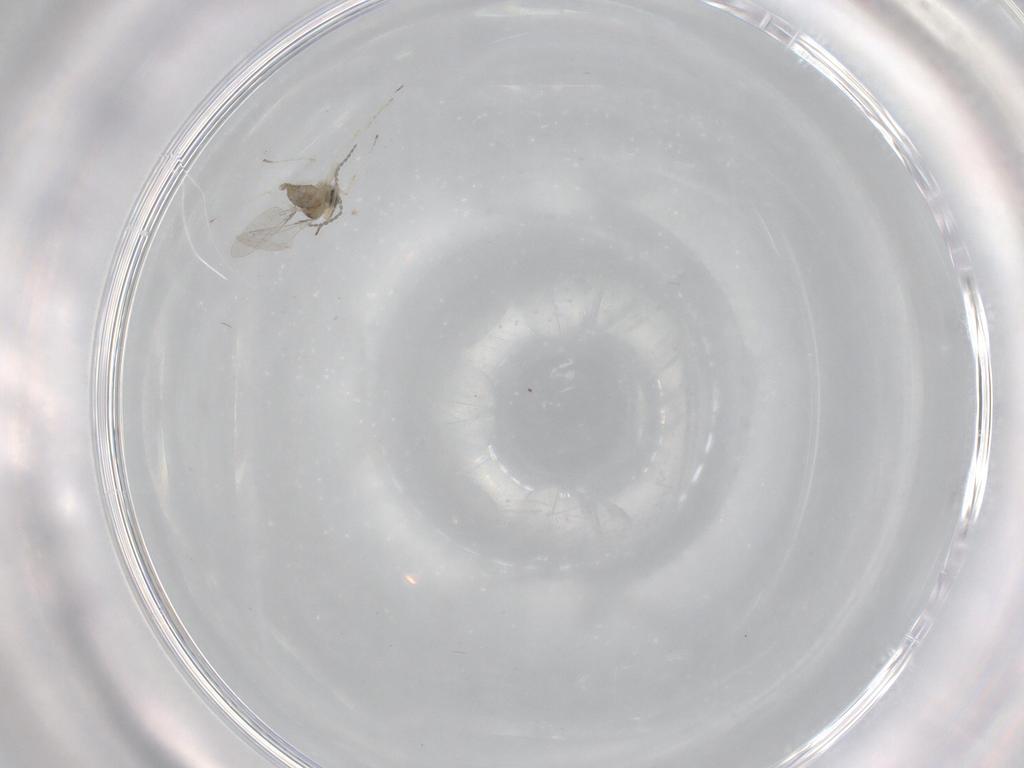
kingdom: Animalia
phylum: Arthropoda
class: Insecta
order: Diptera
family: Cecidomyiidae
